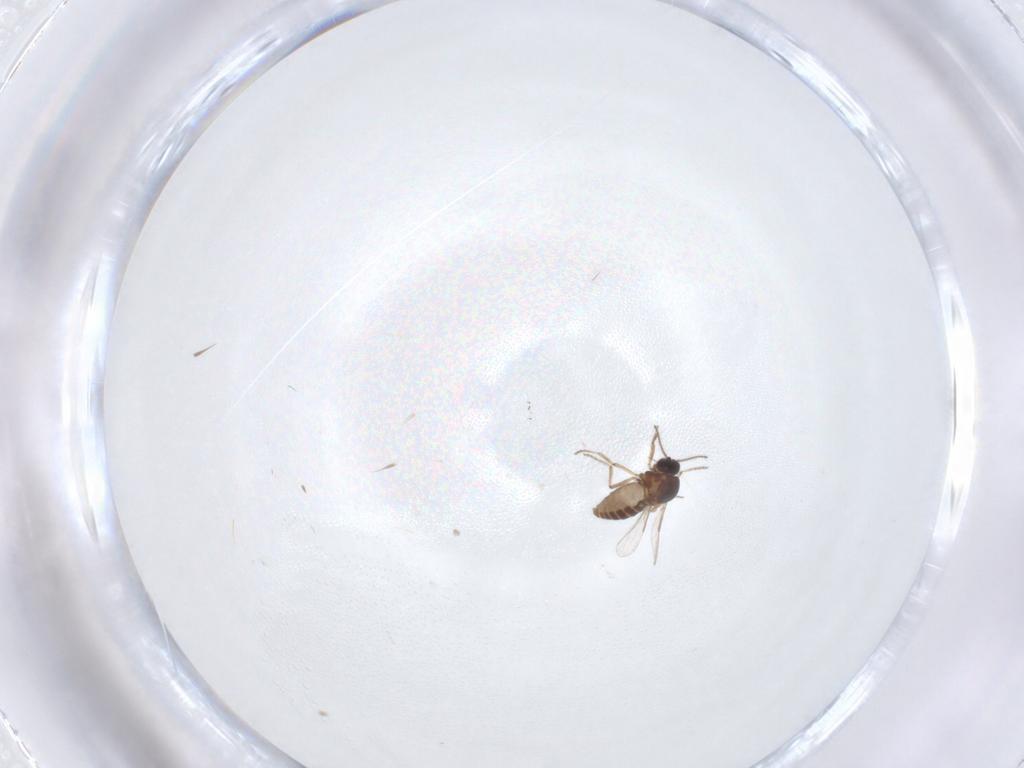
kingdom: Animalia
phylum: Arthropoda
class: Insecta
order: Diptera
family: Ceratopogonidae
